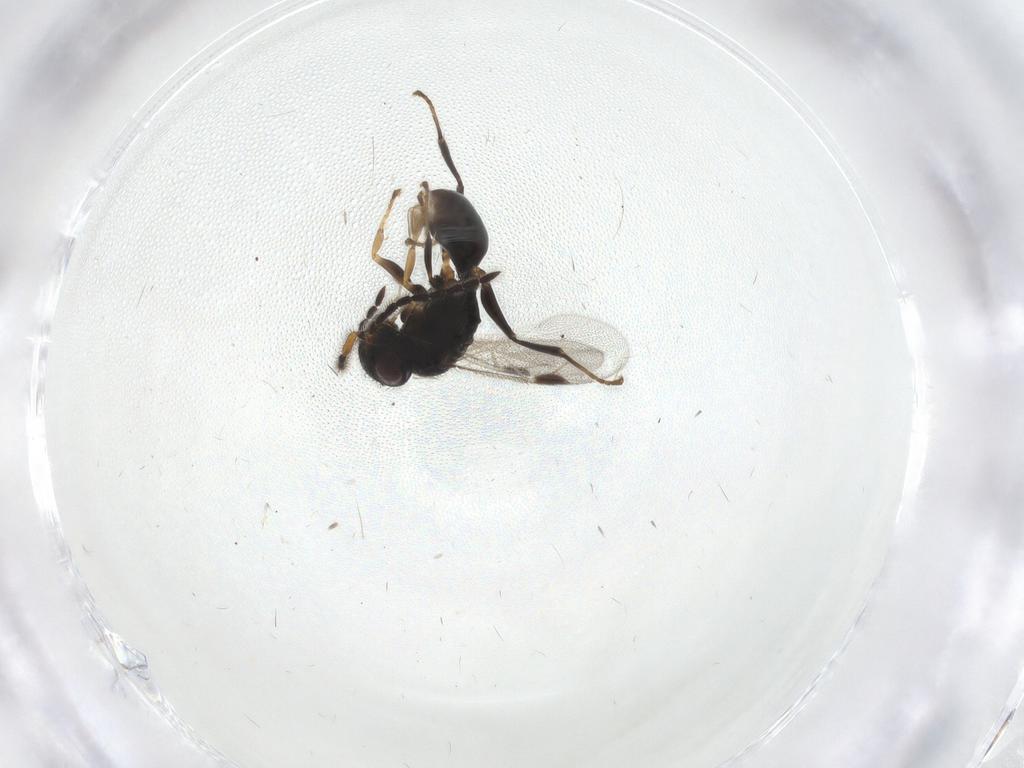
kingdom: Animalia
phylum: Arthropoda
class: Insecta
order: Hymenoptera
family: Dryinidae
